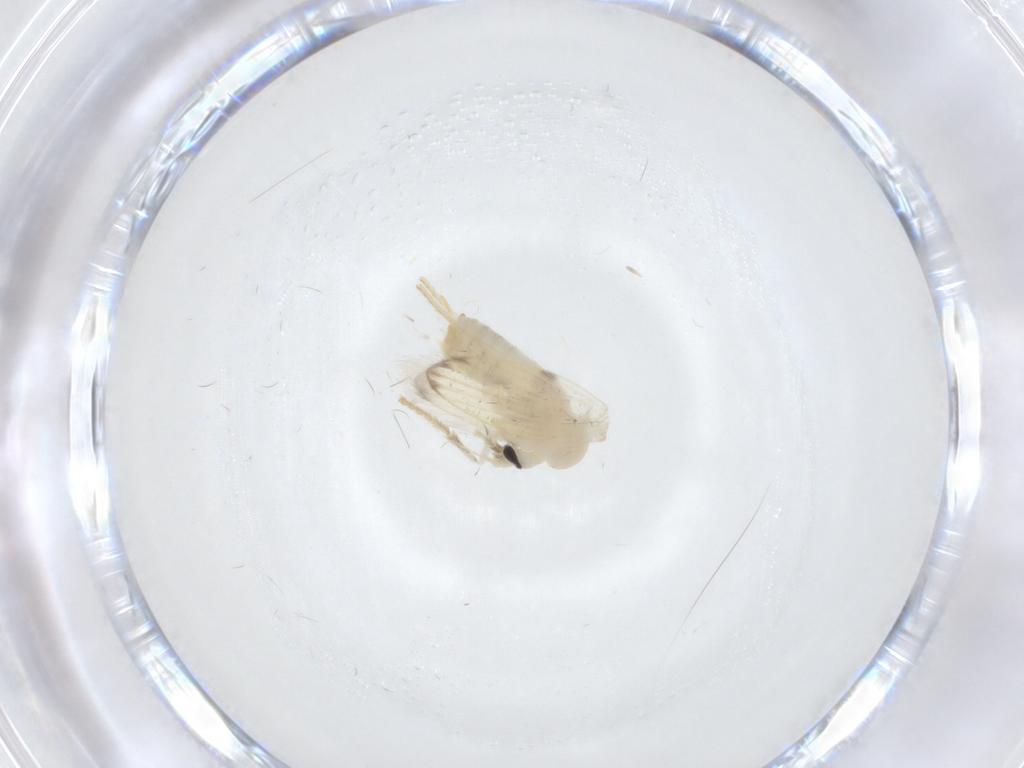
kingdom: Animalia
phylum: Arthropoda
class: Insecta
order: Diptera
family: Psychodidae
